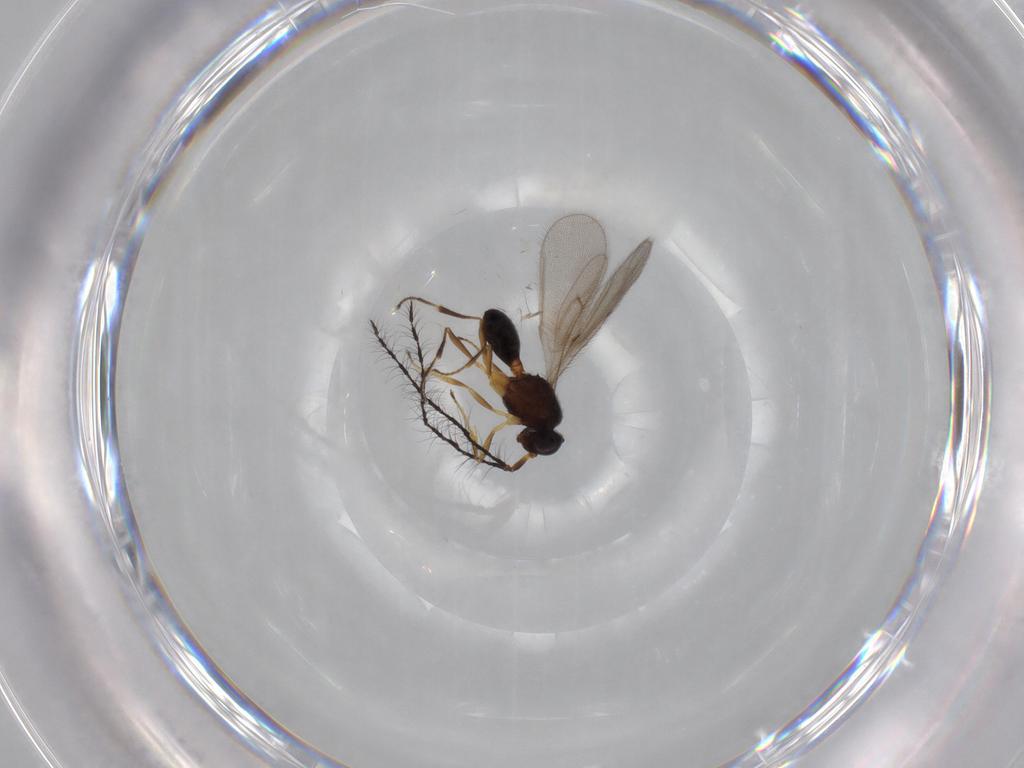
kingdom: Animalia
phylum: Arthropoda
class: Insecta
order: Hymenoptera
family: Scelionidae
